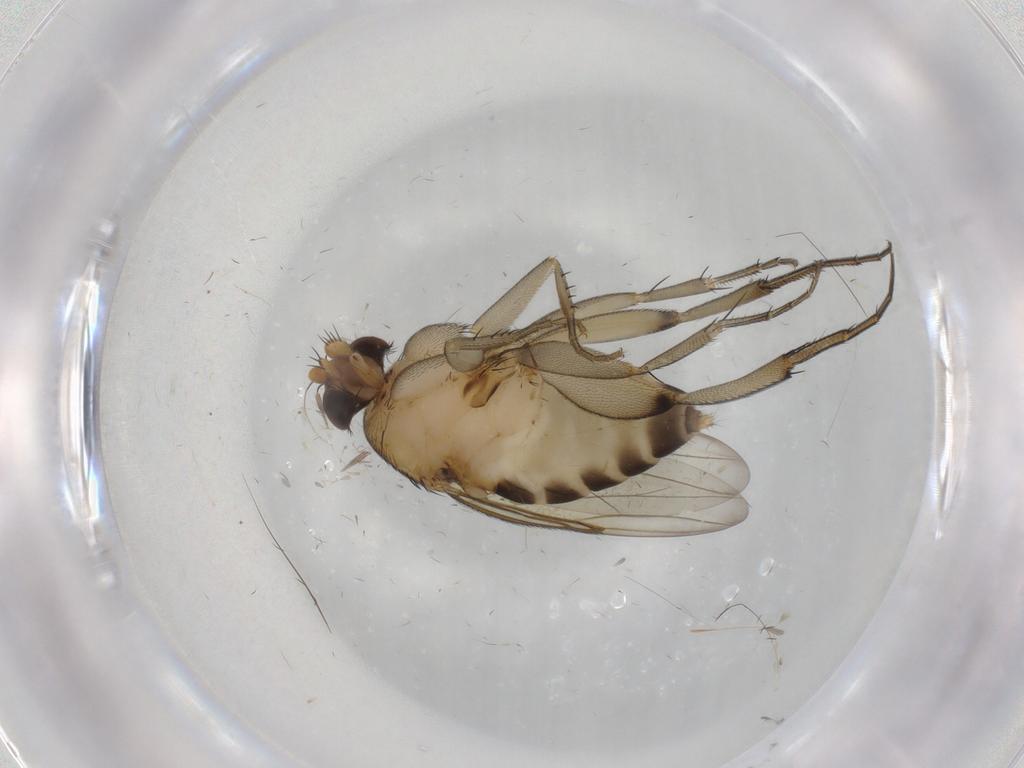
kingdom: Animalia
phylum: Arthropoda
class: Insecta
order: Diptera
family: Phoridae
